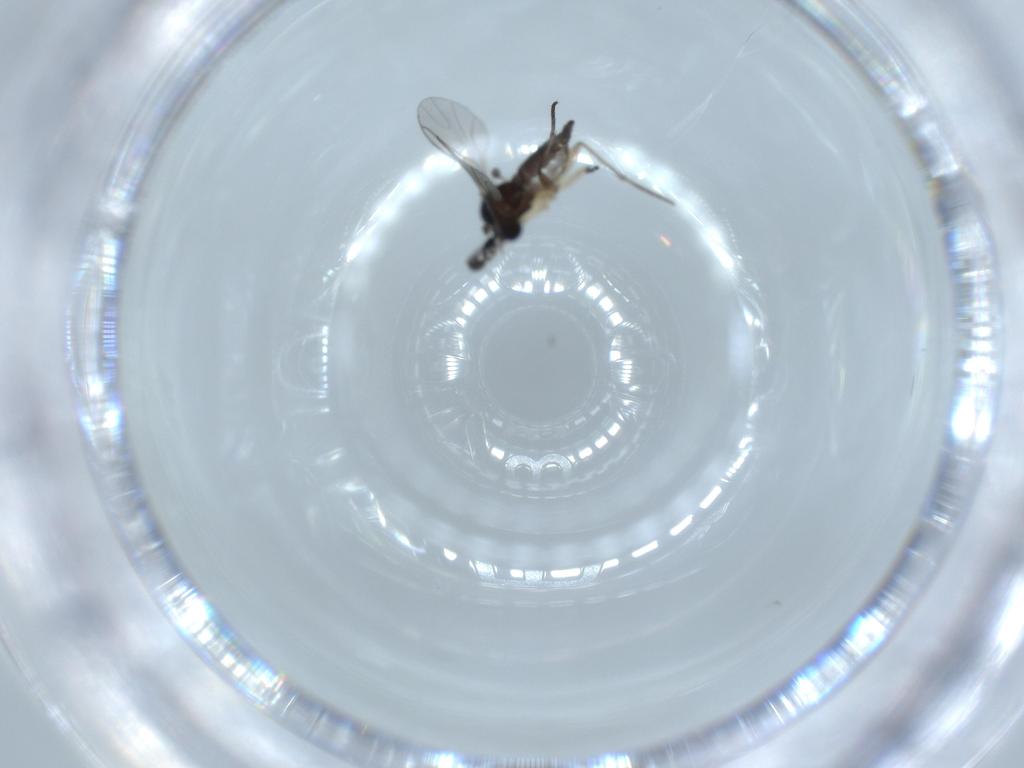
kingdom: Animalia
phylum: Arthropoda
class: Insecta
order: Diptera
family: Sciaridae
